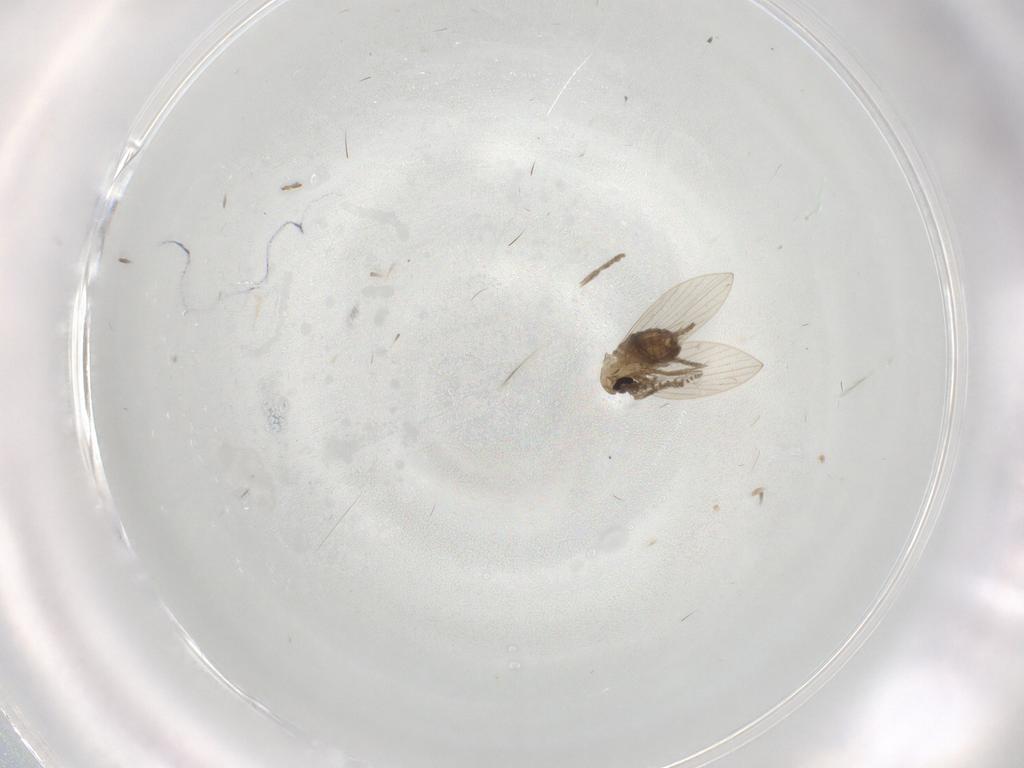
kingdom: Animalia
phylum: Arthropoda
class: Insecta
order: Diptera
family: Psychodidae
